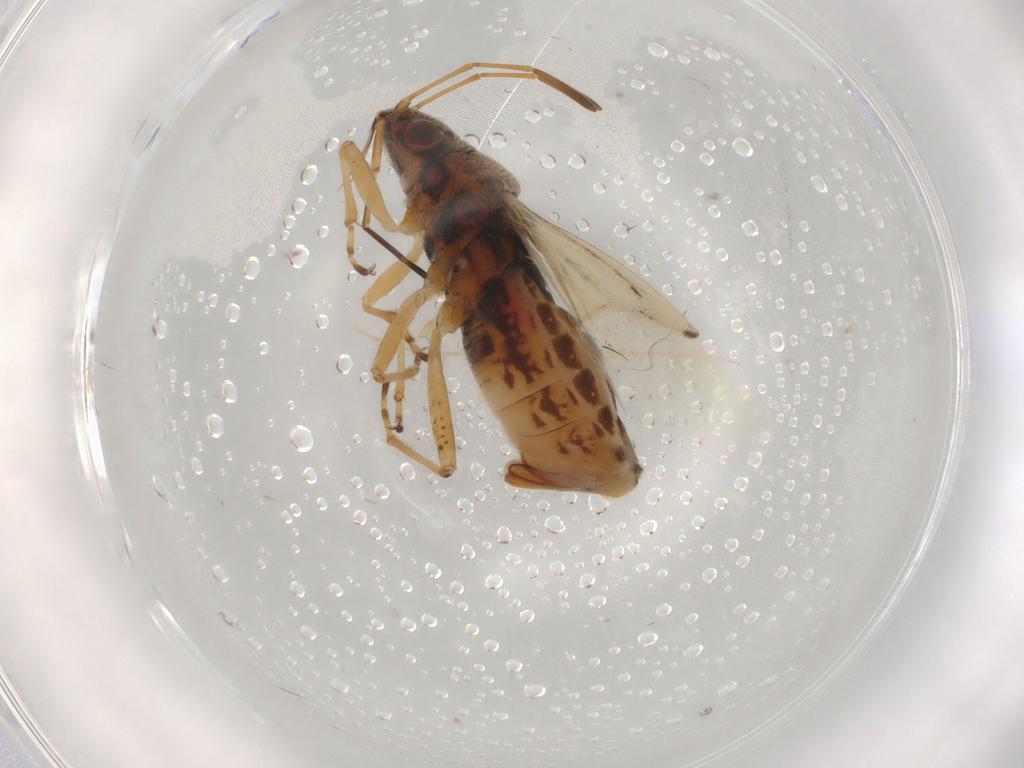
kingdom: Animalia
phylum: Arthropoda
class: Insecta
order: Hemiptera
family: Lygaeidae
